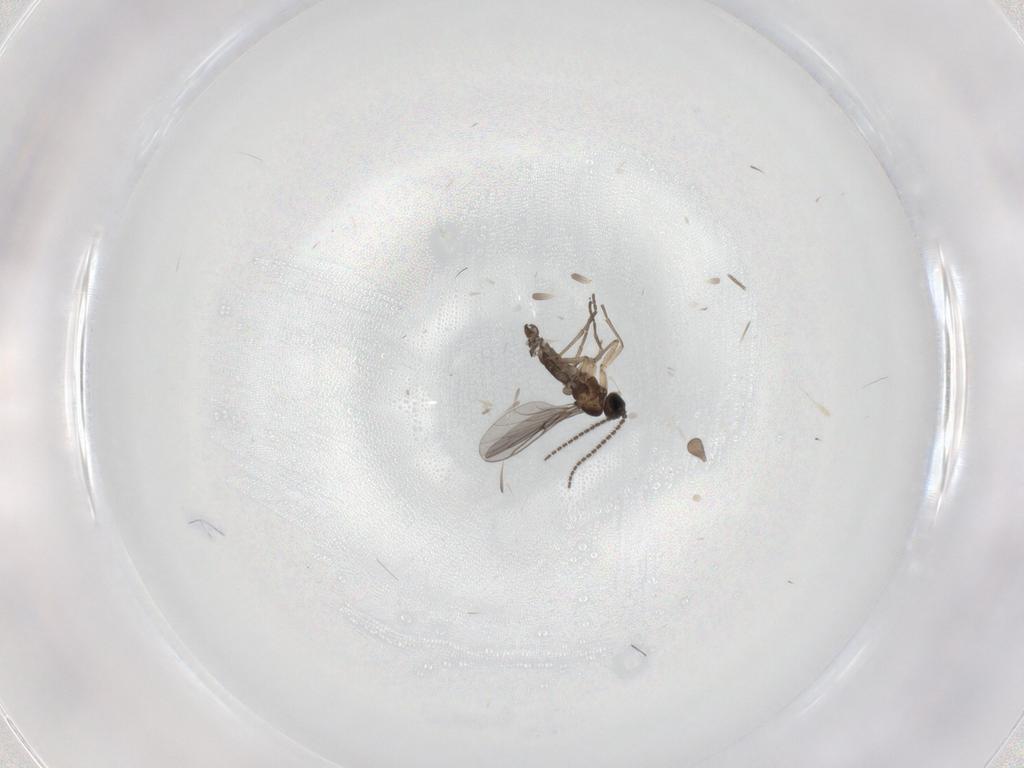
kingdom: Animalia
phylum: Arthropoda
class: Insecta
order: Diptera
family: Sciaridae
